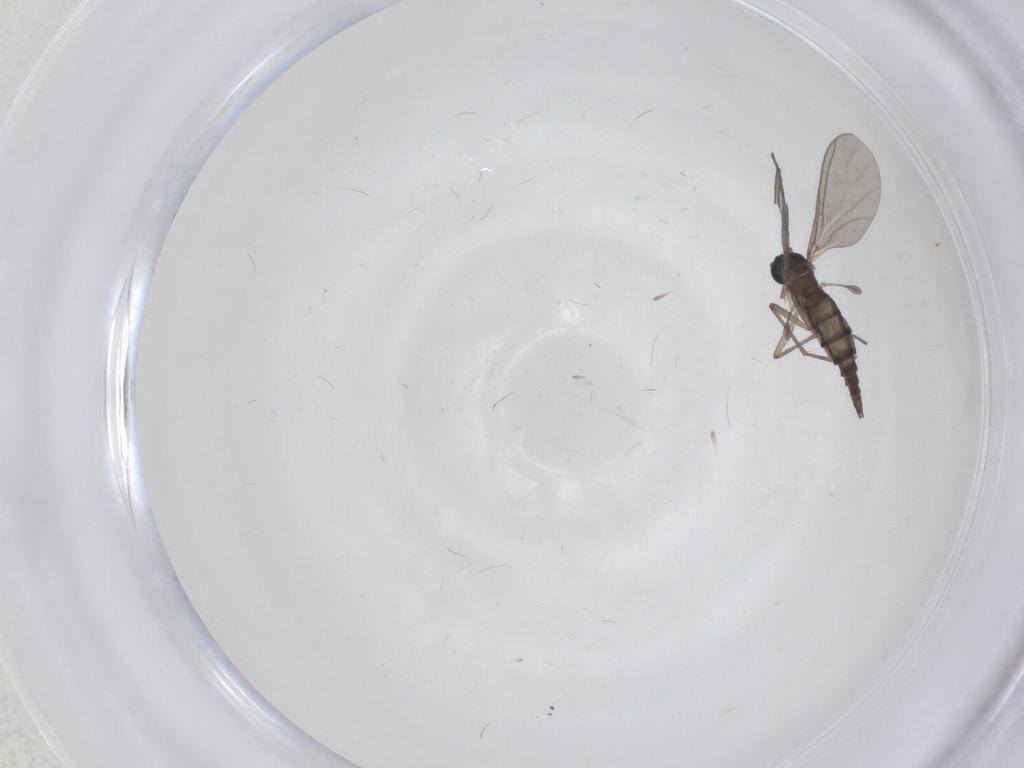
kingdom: Animalia
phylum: Arthropoda
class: Insecta
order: Diptera
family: Sciaridae
